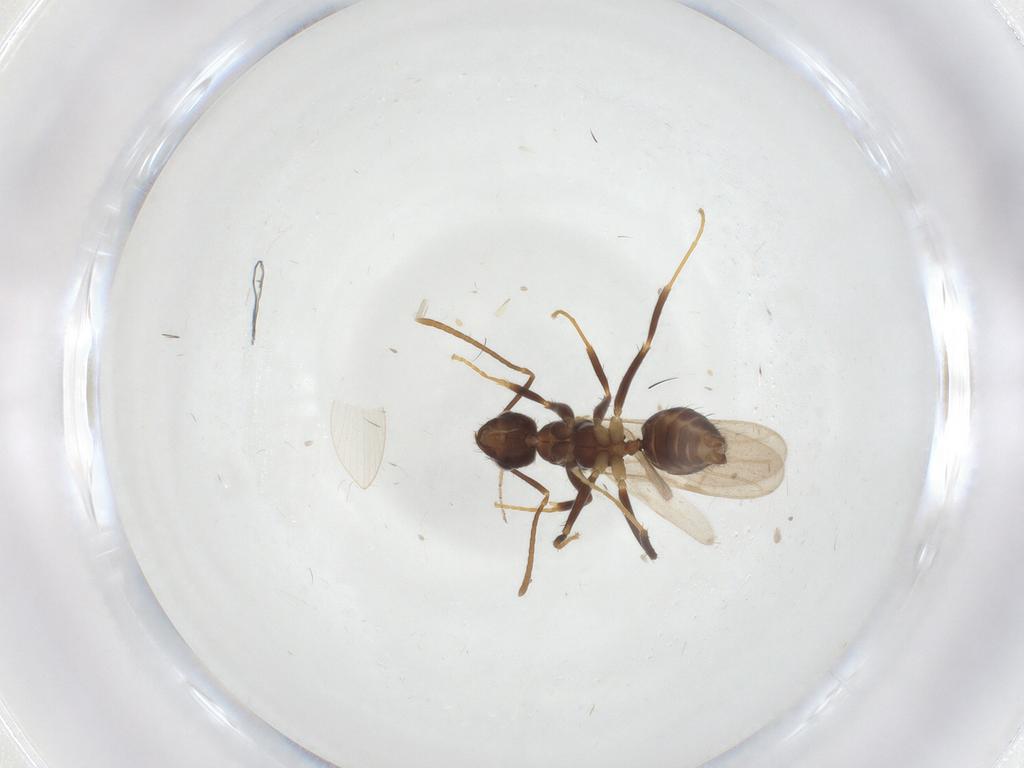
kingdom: Animalia
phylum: Arthropoda
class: Insecta
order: Hymenoptera
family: Formicidae
